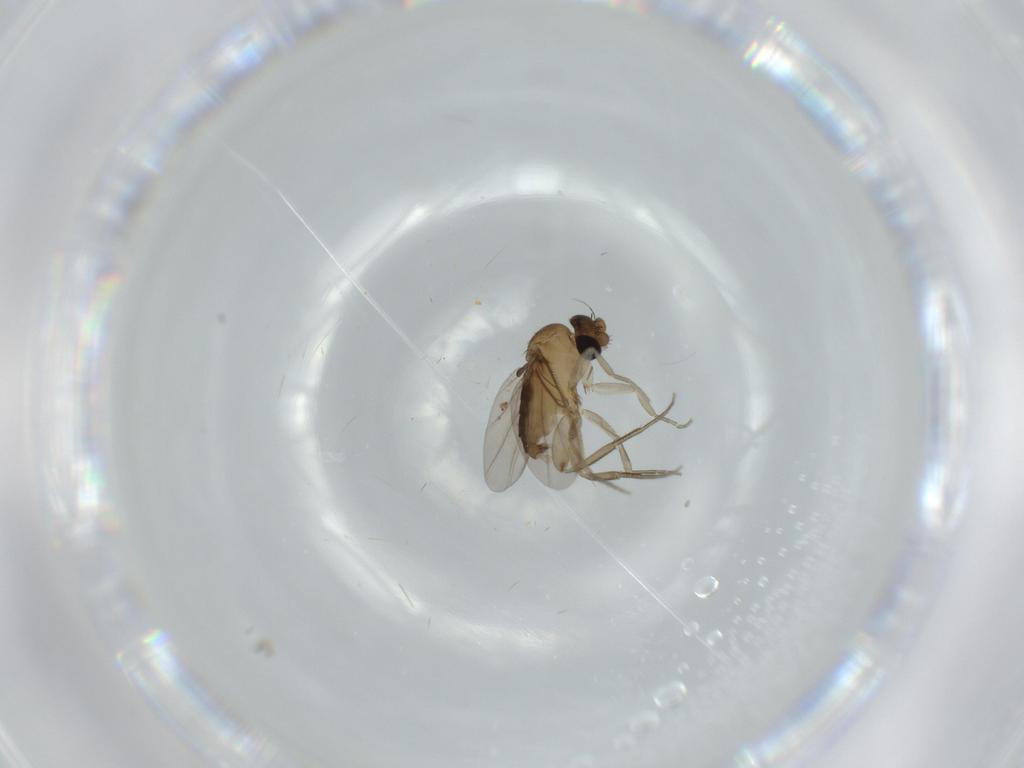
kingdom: Animalia
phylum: Arthropoda
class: Insecta
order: Diptera
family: Phoridae
